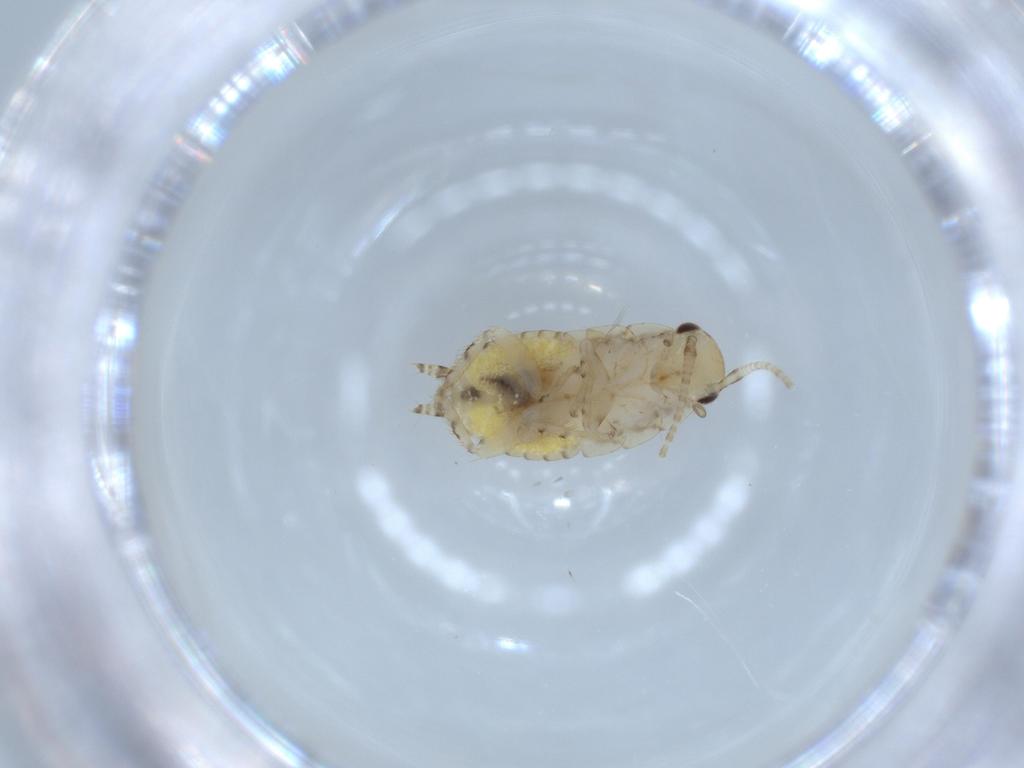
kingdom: Animalia
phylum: Arthropoda
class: Insecta
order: Blattodea
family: Ectobiidae
